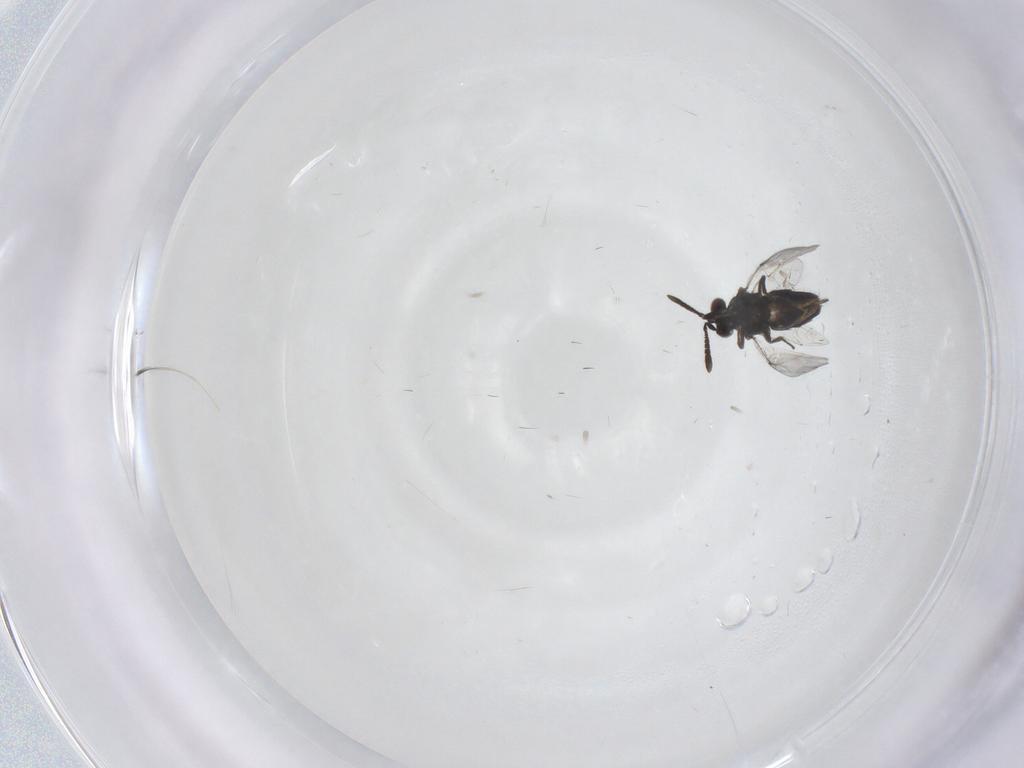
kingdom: Animalia
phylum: Arthropoda
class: Insecta
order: Hymenoptera
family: Encyrtidae
